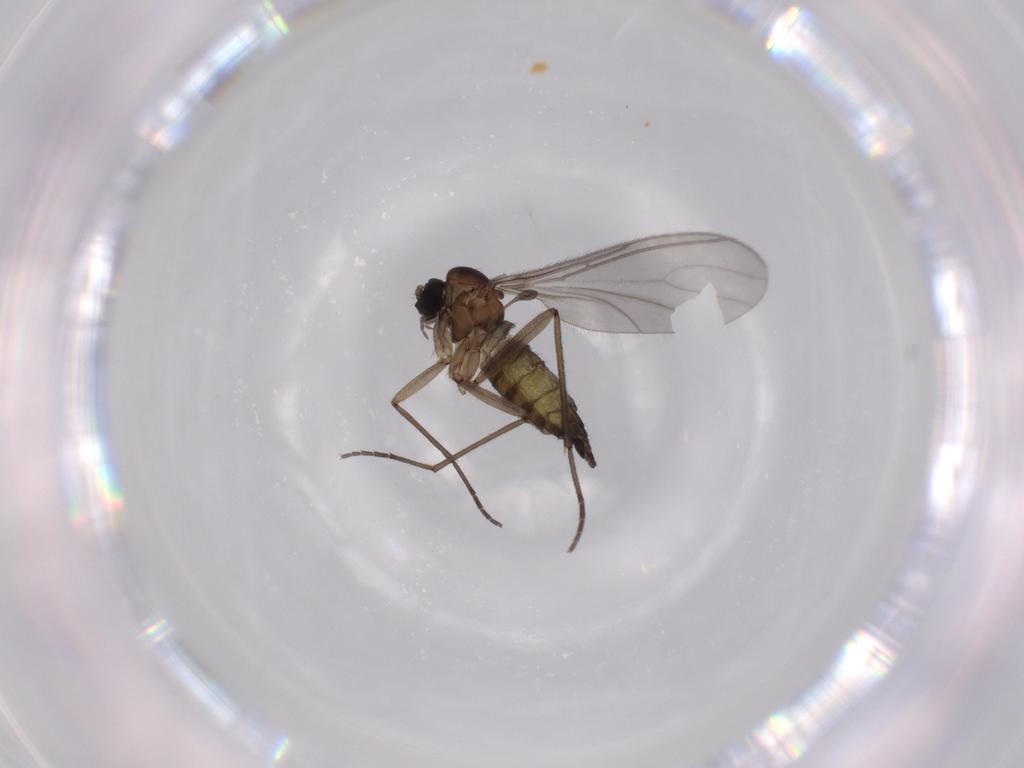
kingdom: Animalia
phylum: Arthropoda
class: Insecta
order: Diptera
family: Sciaridae
